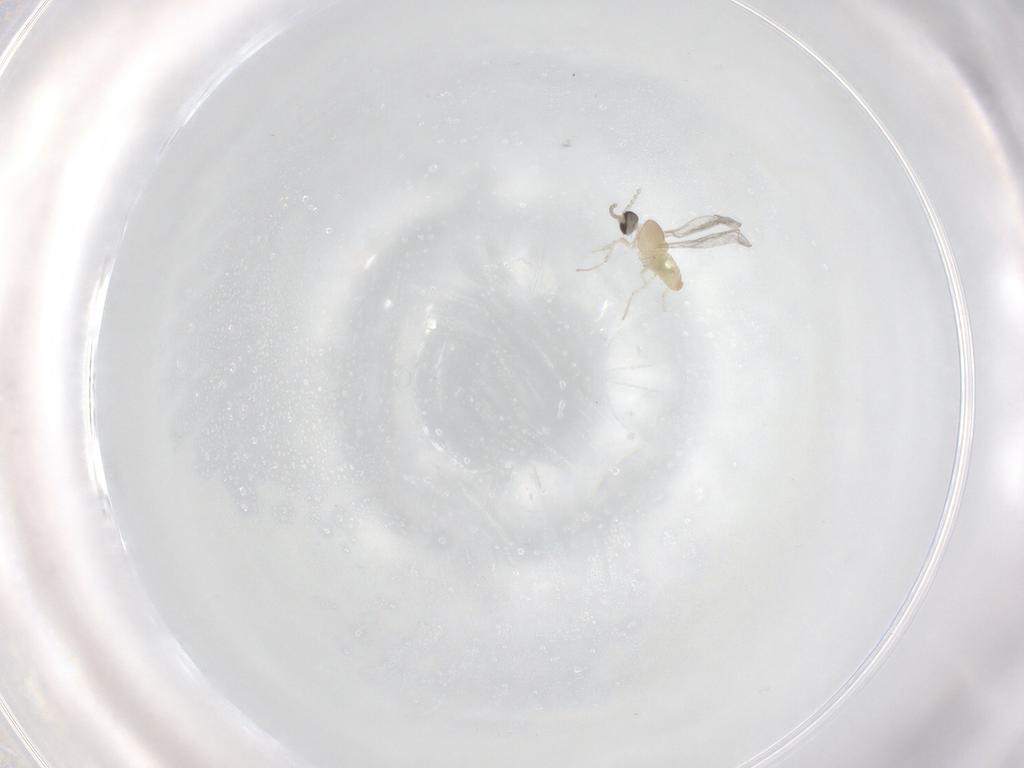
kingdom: Animalia
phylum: Arthropoda
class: Insecta
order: Diptera
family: Cecidomyiidae
